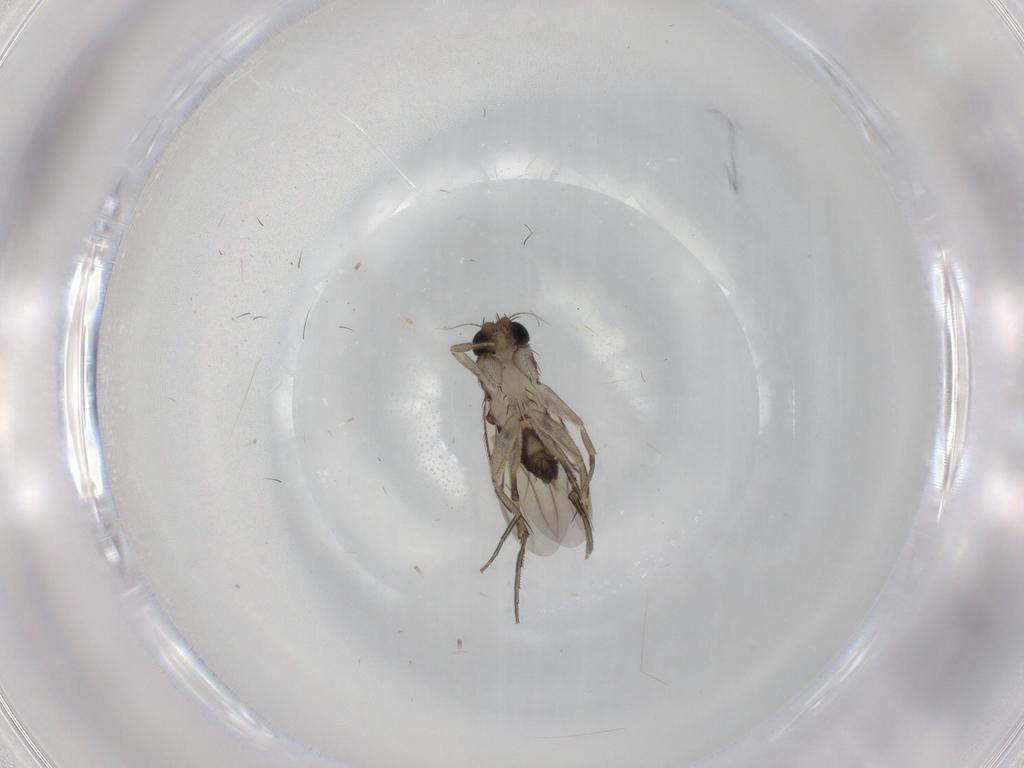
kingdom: Animalia
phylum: Arthropoda
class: Insecta
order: Diptera
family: Phoridae
